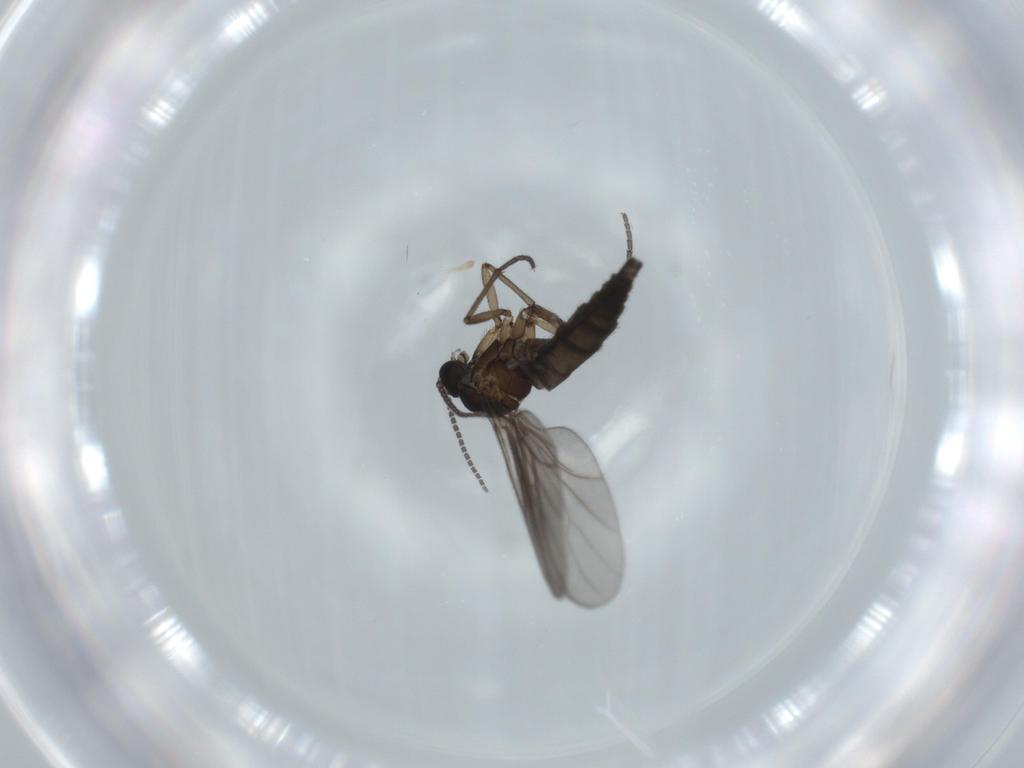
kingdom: Animalia
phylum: Arthropoda
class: Insecta
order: Diptera
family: Sciaridae
